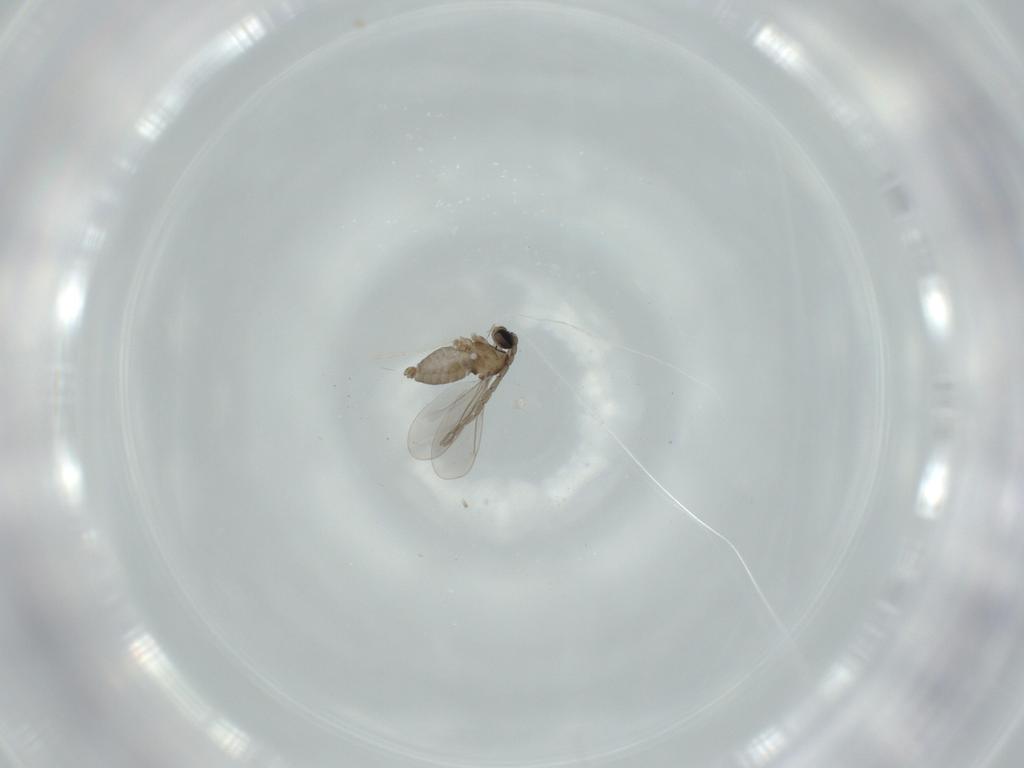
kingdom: Animalia
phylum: Arthropoda
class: Insecta
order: Diptera
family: Cecidomyiidae
